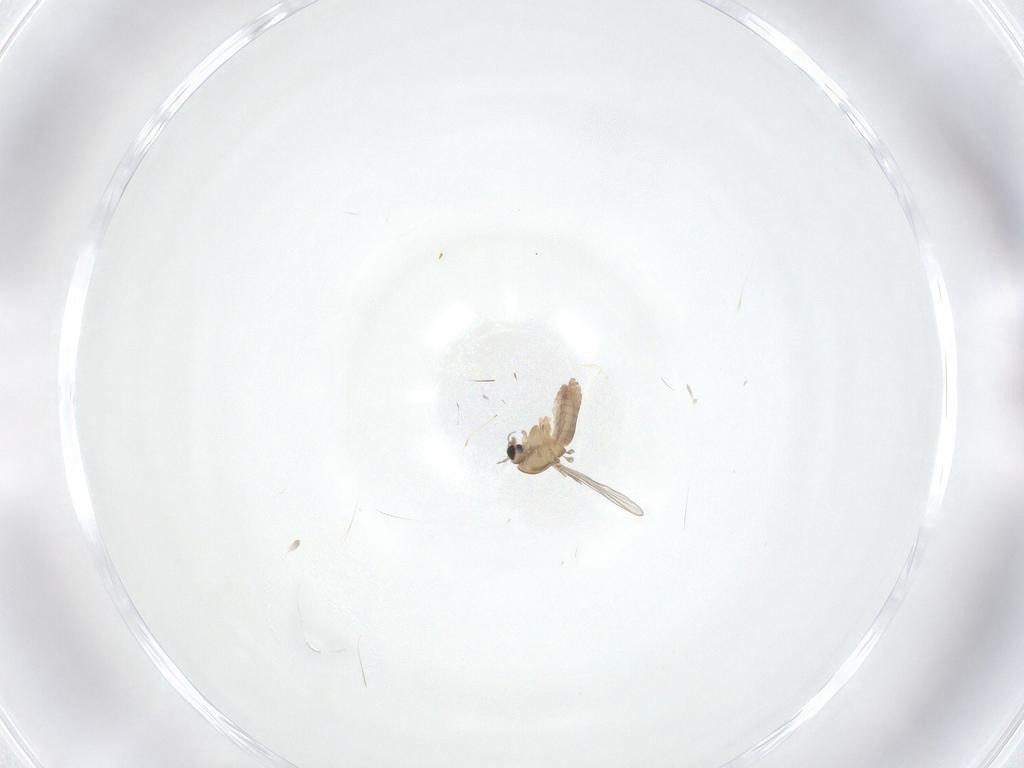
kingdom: Animalia
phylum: Arthropoda
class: Insecta
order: Diptera
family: Chironomidae
